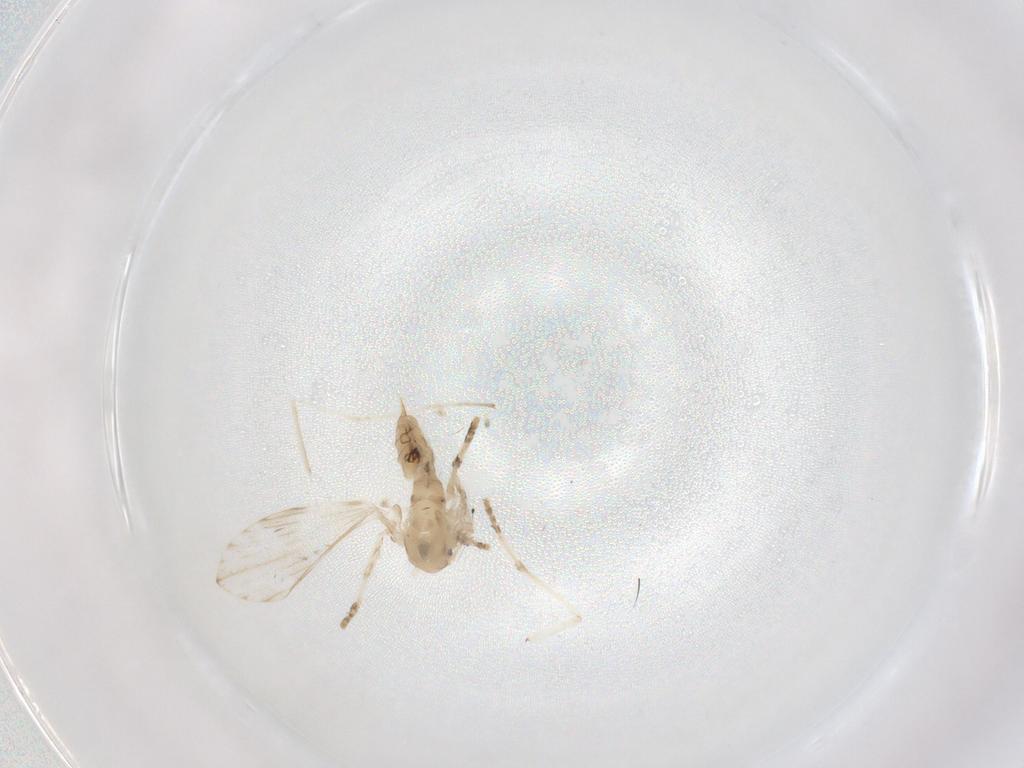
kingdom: Animalia
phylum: Arthropoda
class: Insecta
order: Diptera
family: Psychodidae
